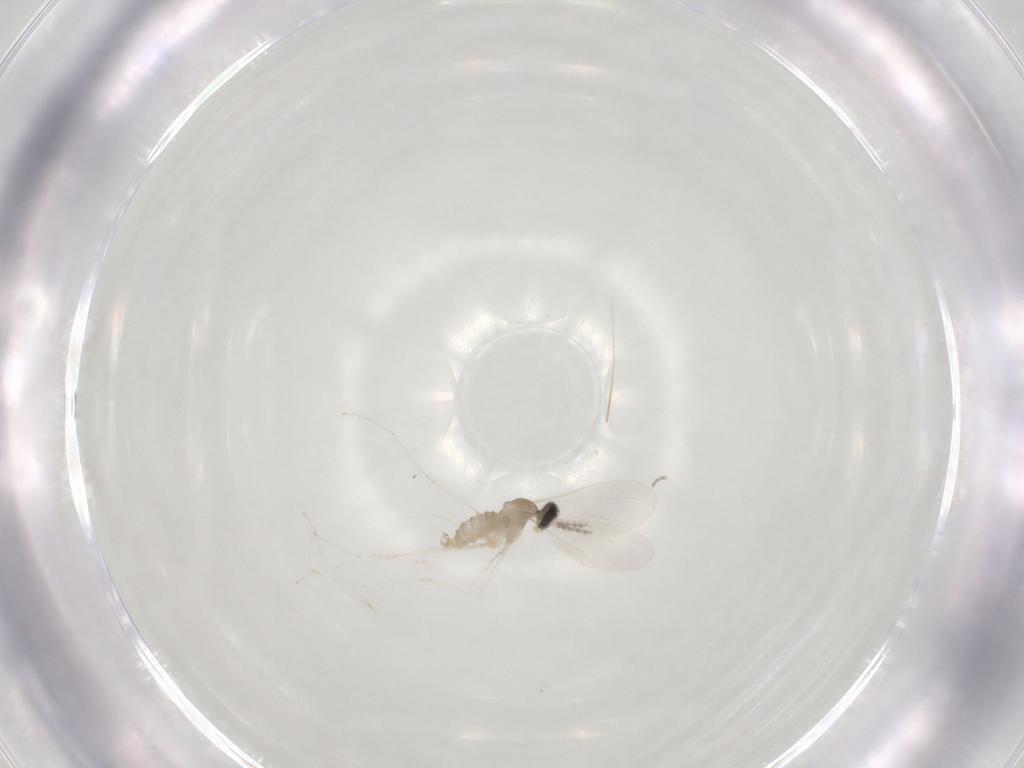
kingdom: Animalia
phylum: Arthropoda
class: Insecta
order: Diptera
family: Cecidomyiidae
